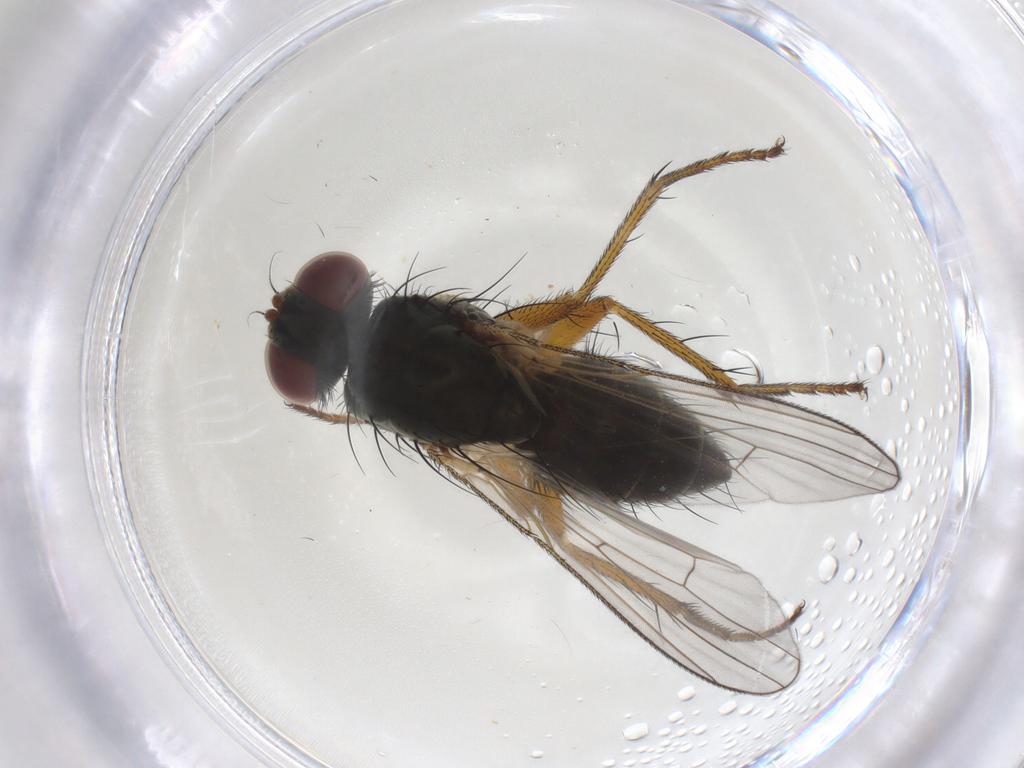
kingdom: Animalia
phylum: Arthropoda
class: Insecta
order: Diptera
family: Muscidae
